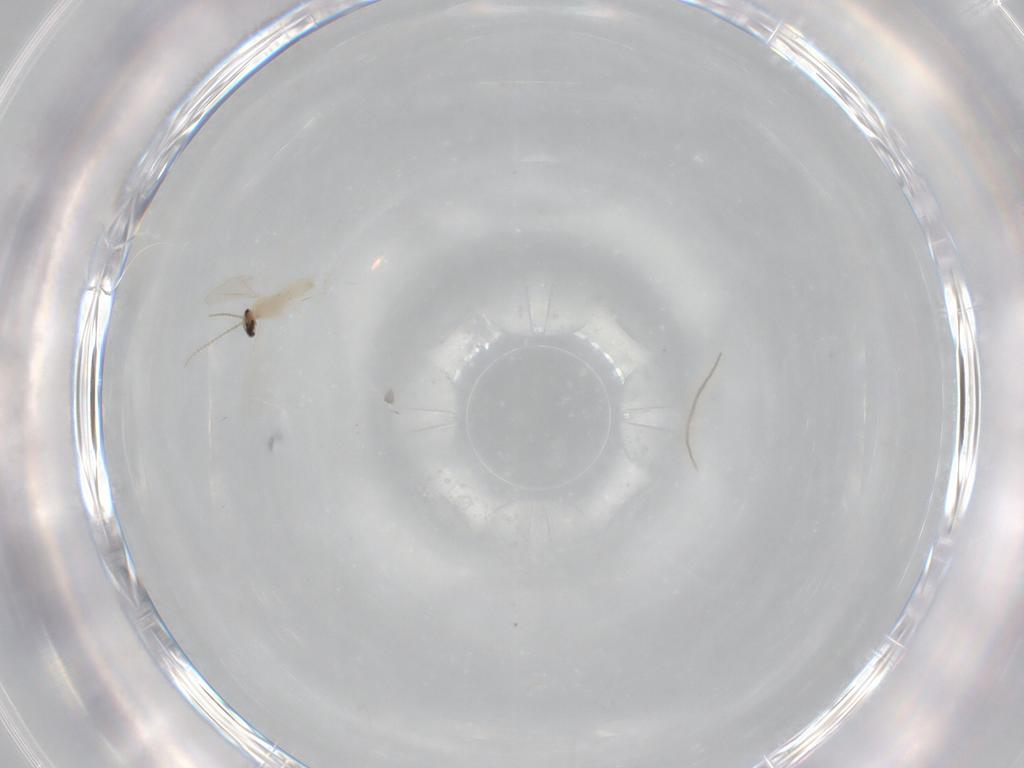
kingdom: Animalia
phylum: Arthropoda
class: Insecta
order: Diptera
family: Cecidomyiidae
